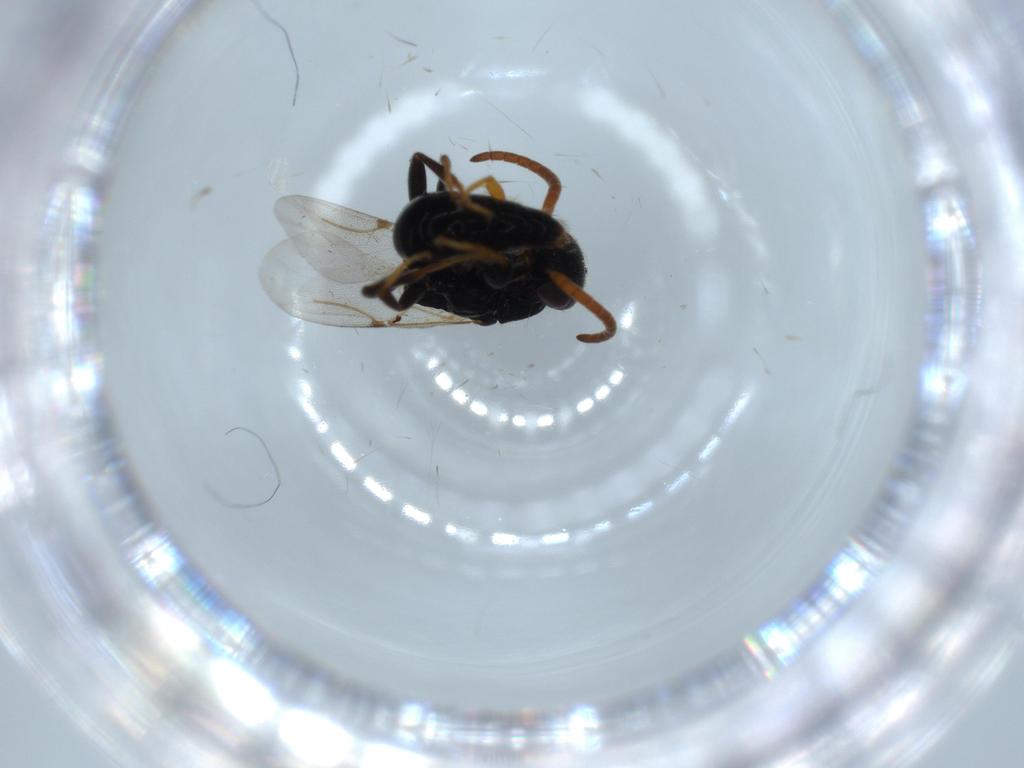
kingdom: Animalia
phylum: Arthropoda
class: Insecta
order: Hymenoptera
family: Bethylidae
